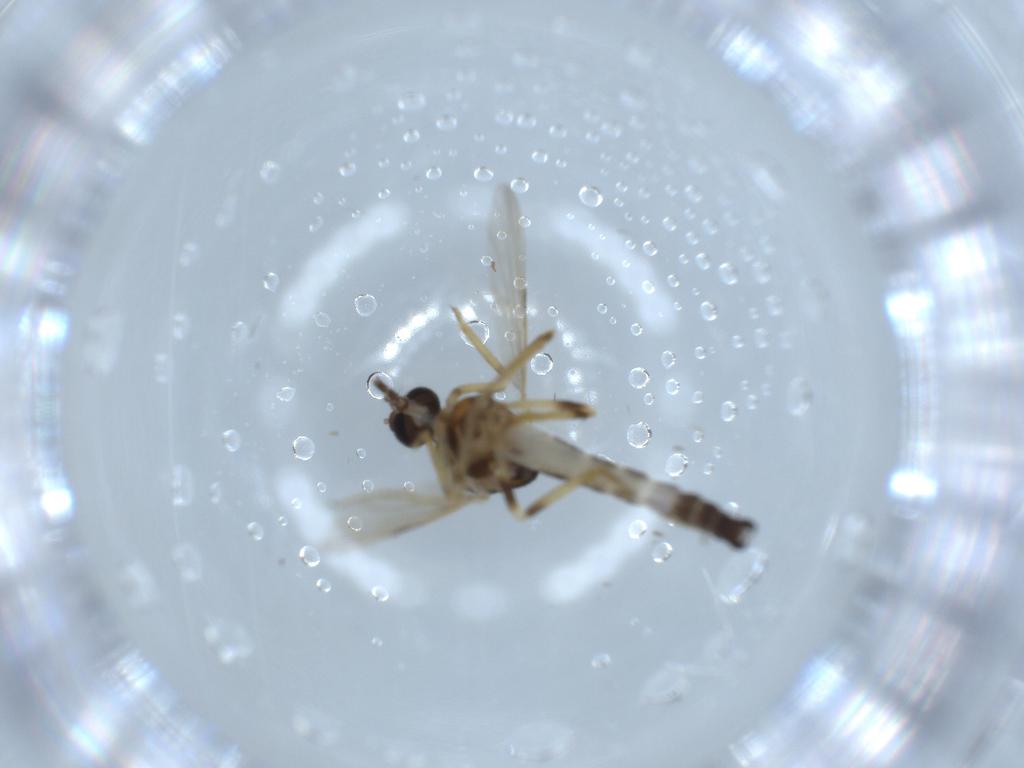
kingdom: Animalia
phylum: Arthropoda
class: Insecta
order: Diptera
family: Ceratopogonidae
